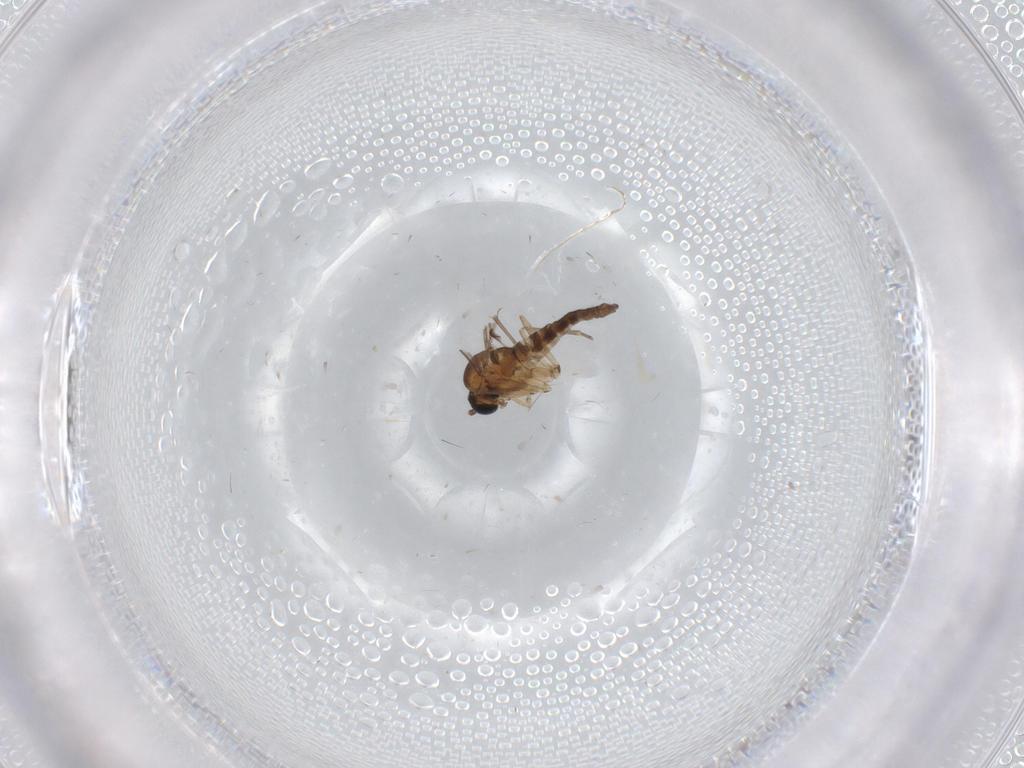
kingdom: Animalia
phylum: Arthropoda
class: Insecta
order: Diptera
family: Sciaridae
